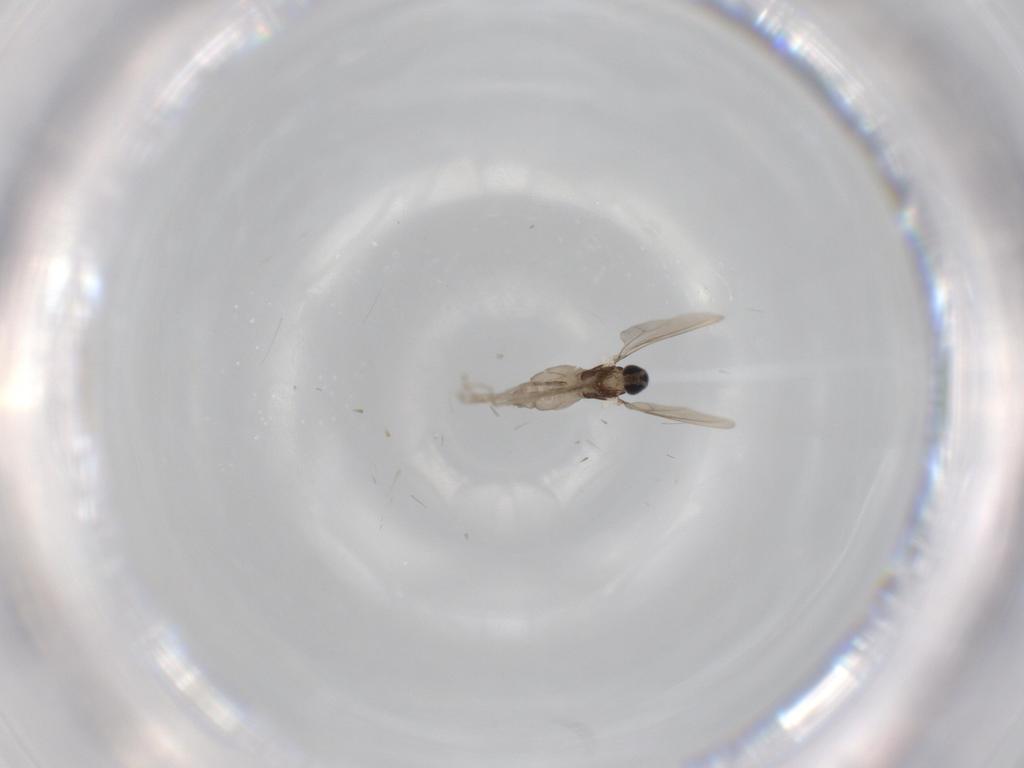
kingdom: Animalia
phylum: Arthropoda
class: Insecta
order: Diptera
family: Cecidomyiidae
